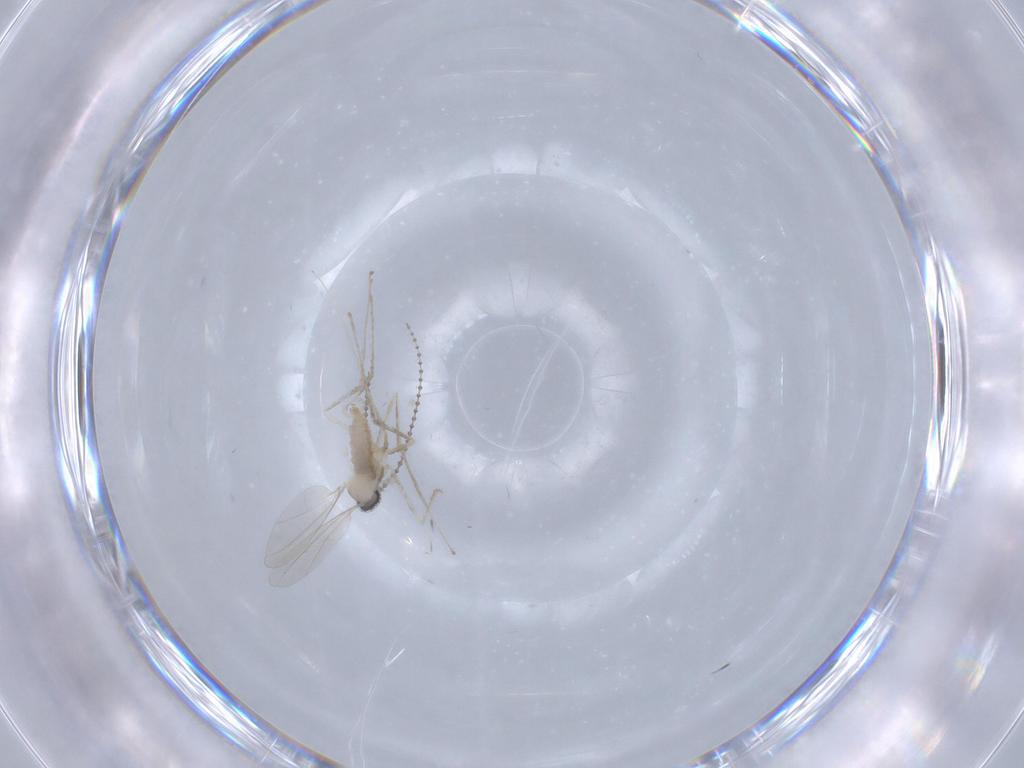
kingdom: Animalia
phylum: Arthropoda
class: Insecta
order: Diptera
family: Cecidomyiidae
